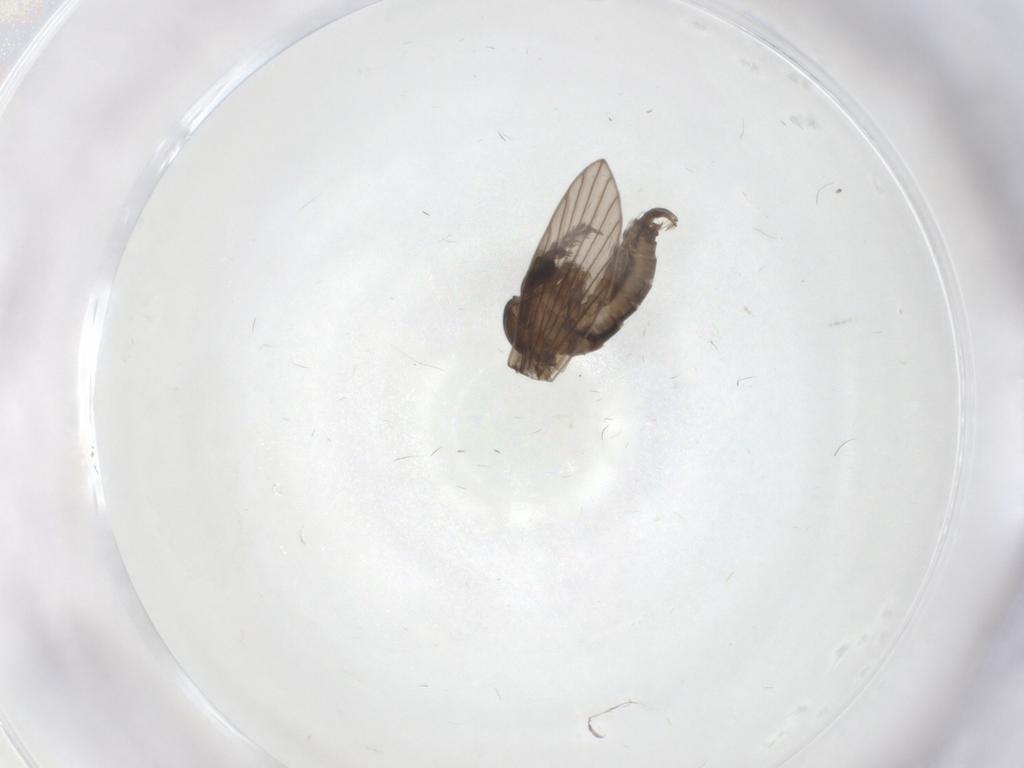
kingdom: Animalia
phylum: Arthropoda
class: Insecta
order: Diptera
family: Psychodidae
